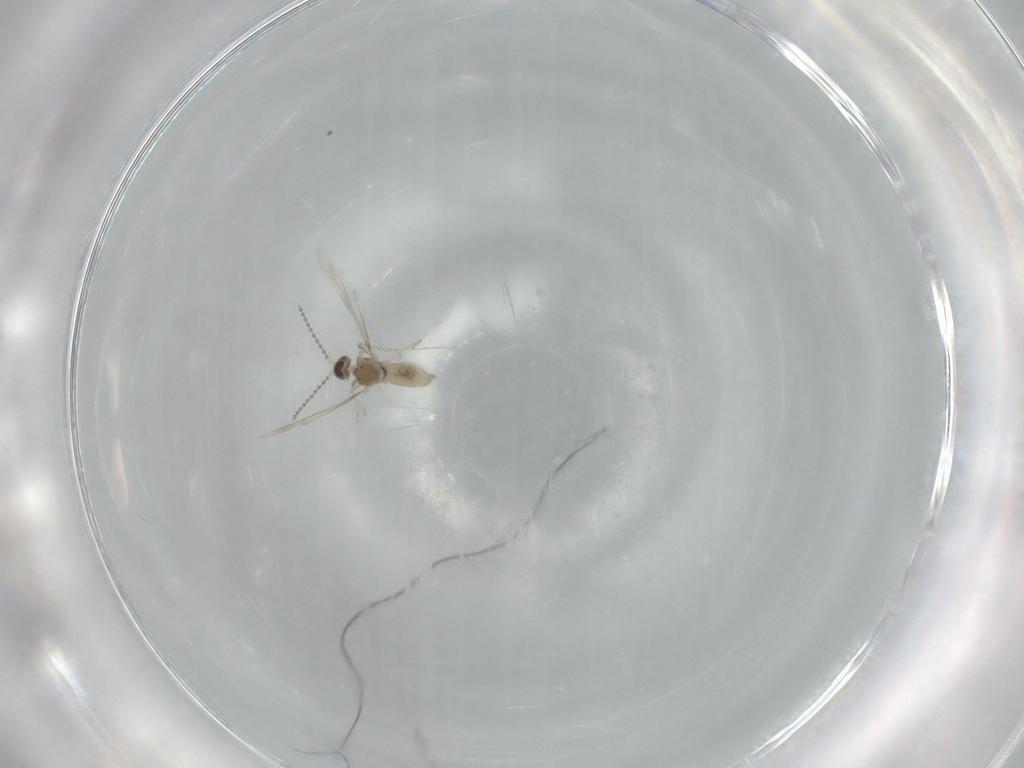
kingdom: Animalia
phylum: Arthropoda
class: Insecta
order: Diptera
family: Cecidomyiidae
